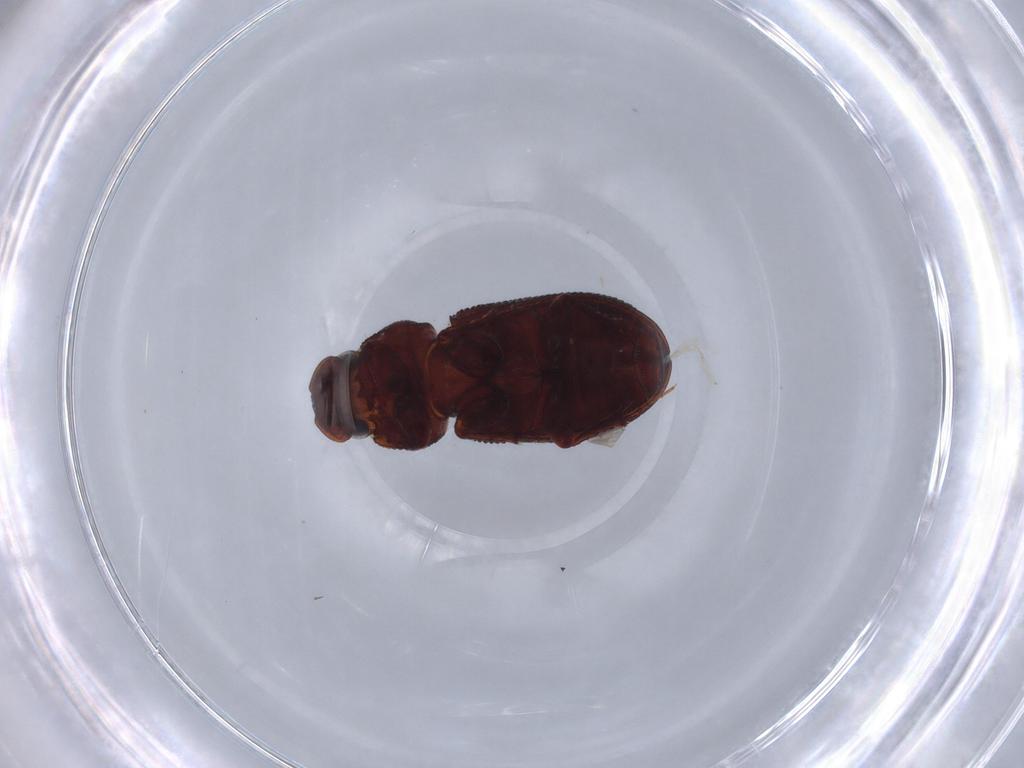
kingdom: Animalia
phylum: Arthropoda
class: Insecta
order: Coleoptera
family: Scarabaeidae
